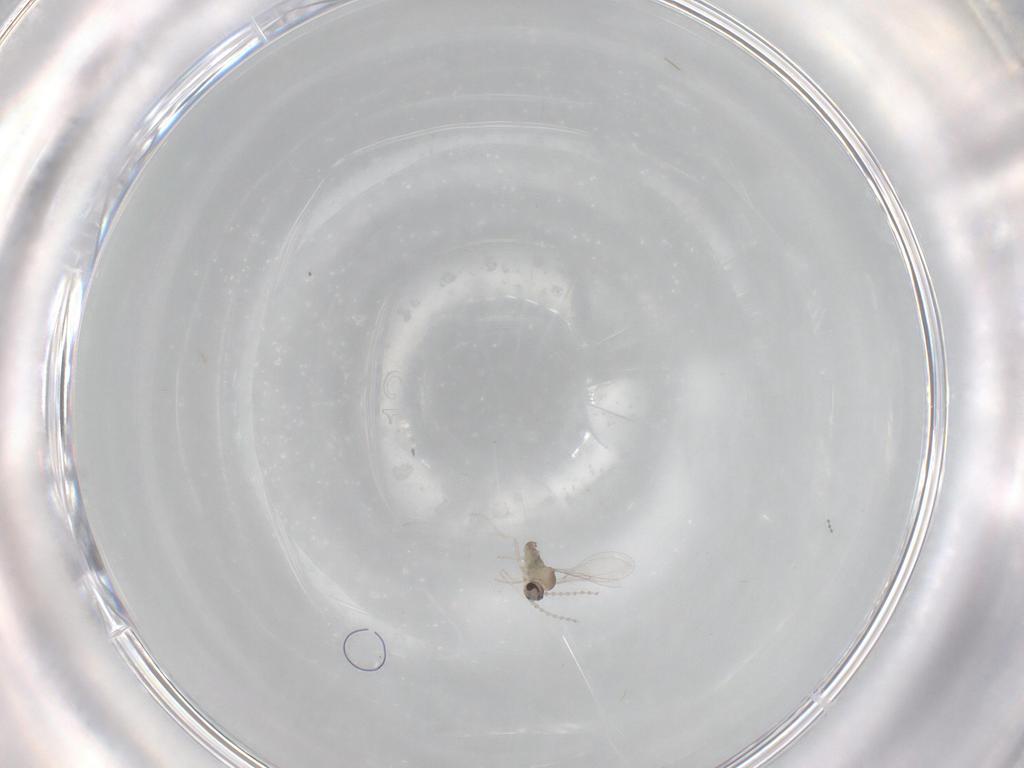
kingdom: Animalia
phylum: Arthropoda
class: Insecta
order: Diptera
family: Cecidomyiidae
